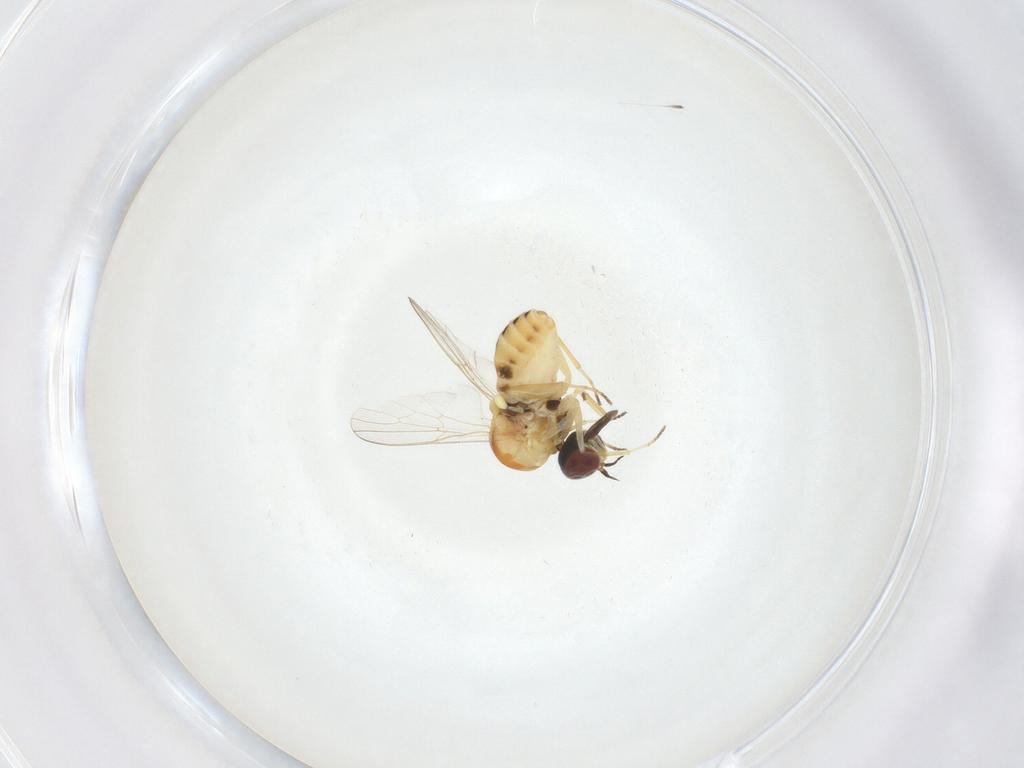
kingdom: Animalia
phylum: Arthropoda
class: Insecta
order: Diptera
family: Bombyliidae
